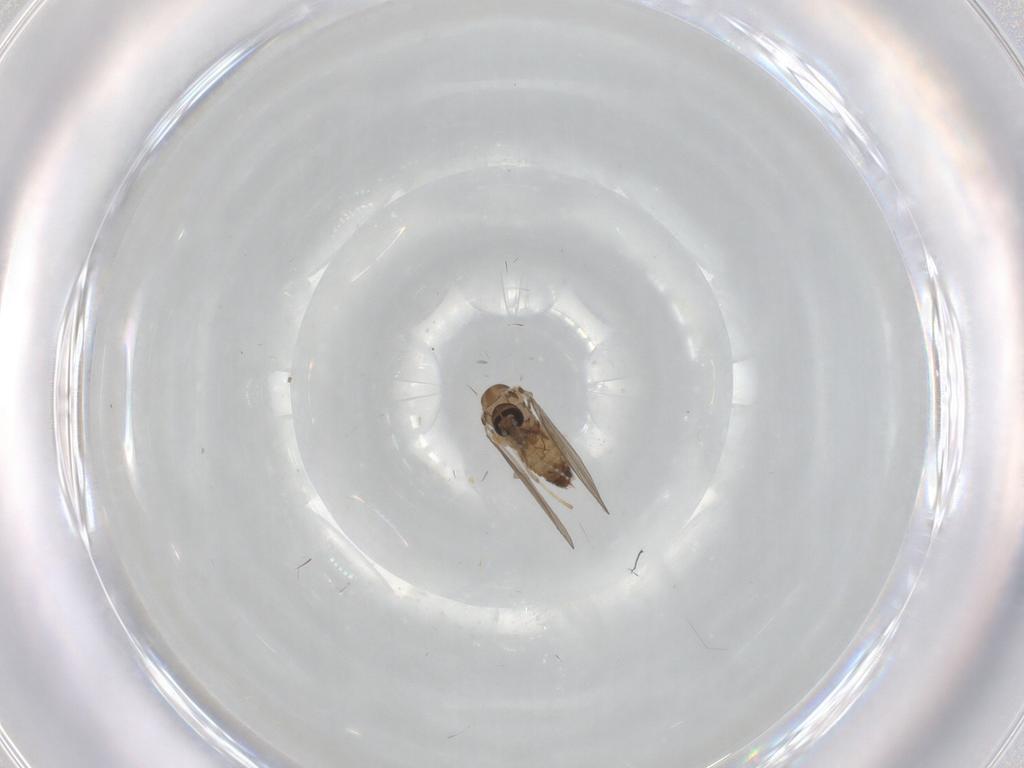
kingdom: Animalia
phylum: Arthropoda
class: Insecta
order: Diptera
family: Psychodidae
